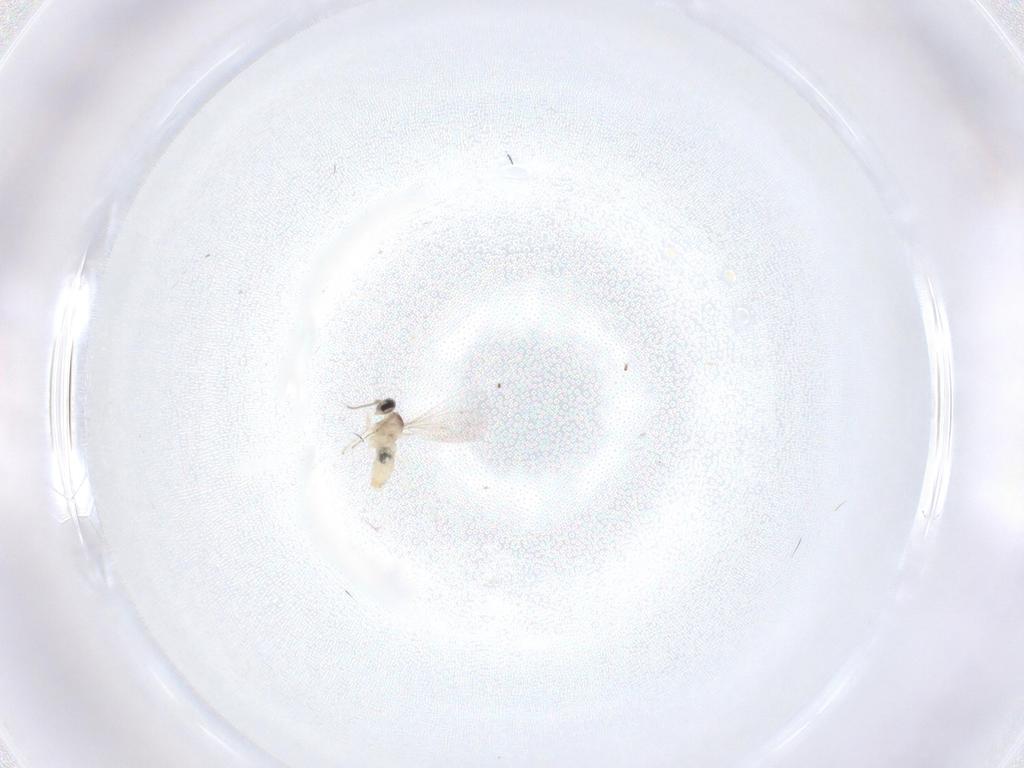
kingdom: Animalia
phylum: Arthropoda
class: Insecta
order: Diptera
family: Cecidomyiidae
